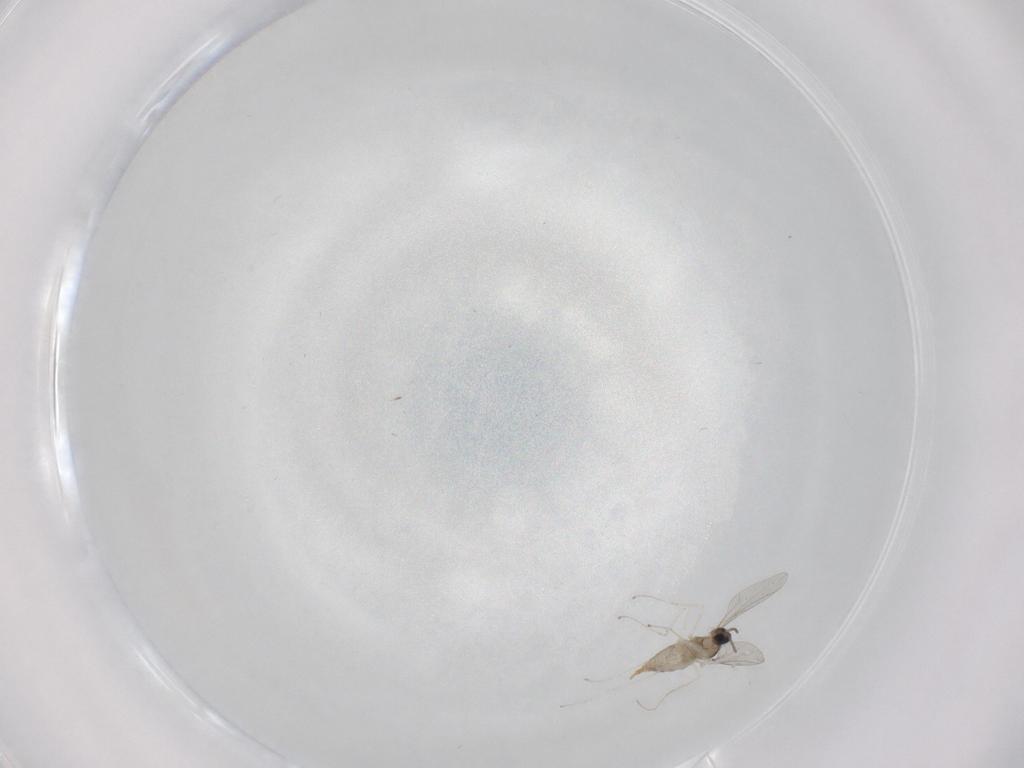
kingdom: Animalia
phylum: Arthropoda
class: Insecta
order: Diptera
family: Cecidomyiidae
